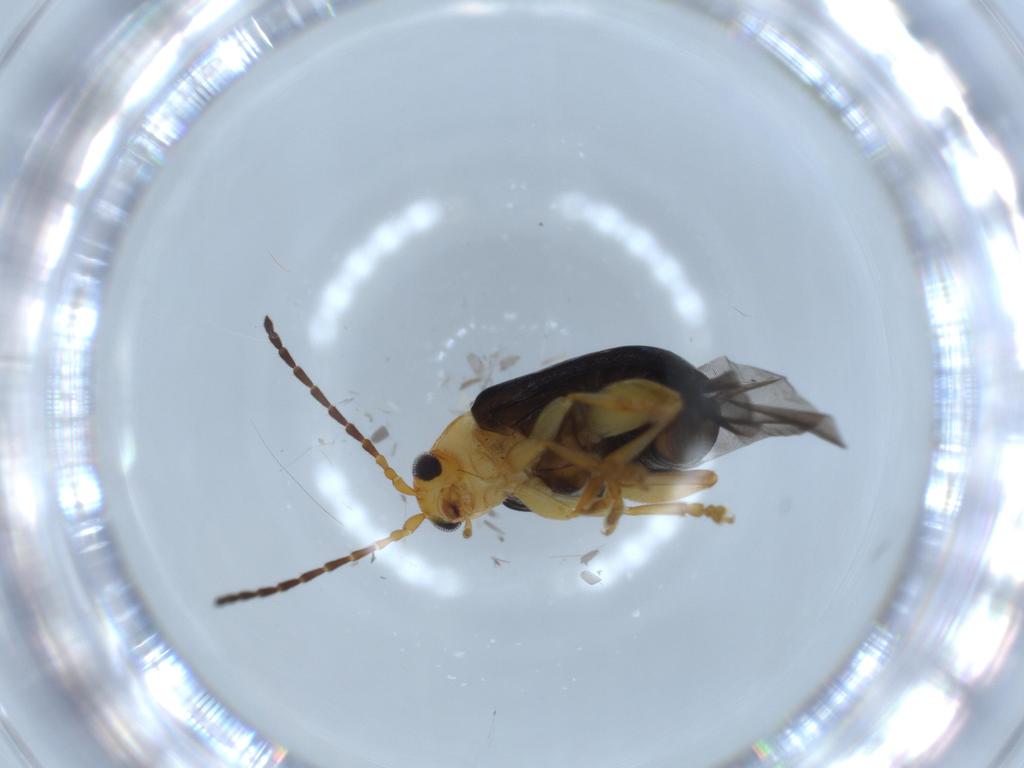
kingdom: Animalia
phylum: Arthropoda
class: Insecta
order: Coleoptera
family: Chrysomelidae
